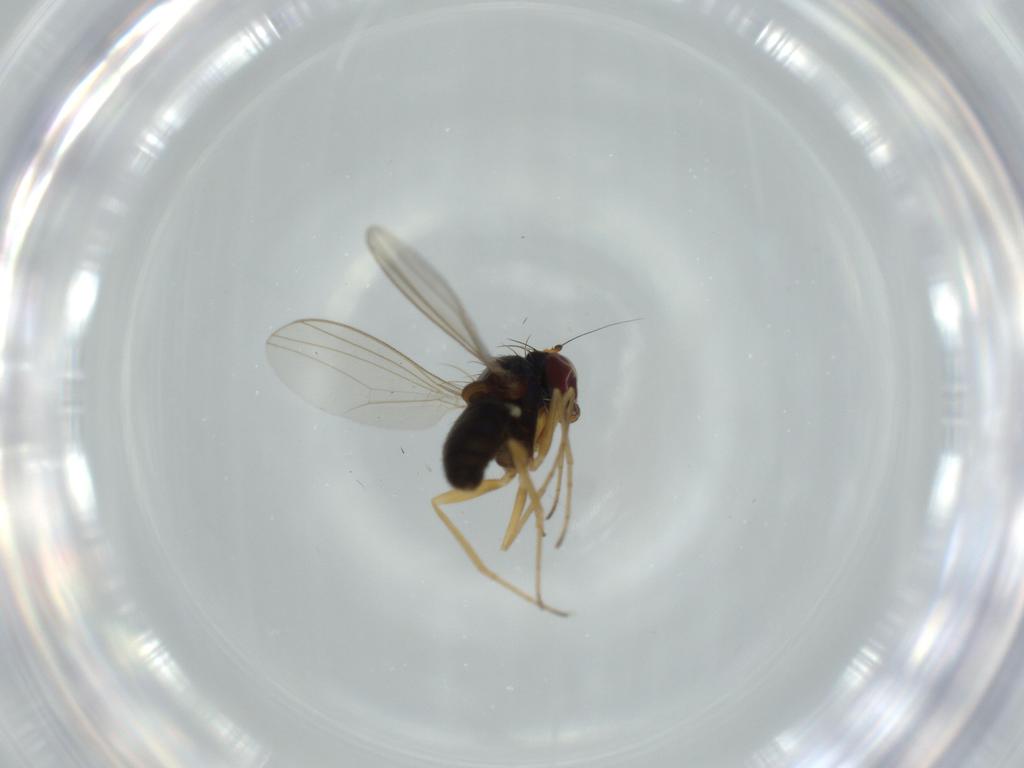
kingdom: Animalia
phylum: Arthropoda
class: Insecta
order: Diptera
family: Dolichopodidae
